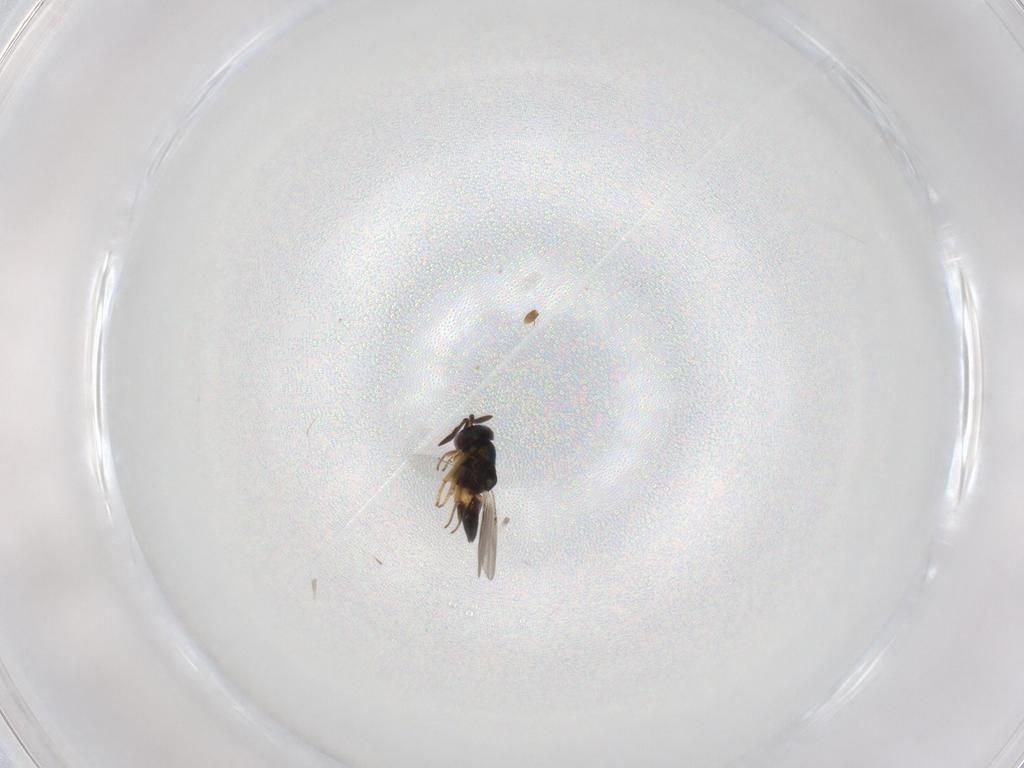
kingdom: Animalia
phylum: Arthropoda
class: Insecta
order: Hymenoptera
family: Formicidae
